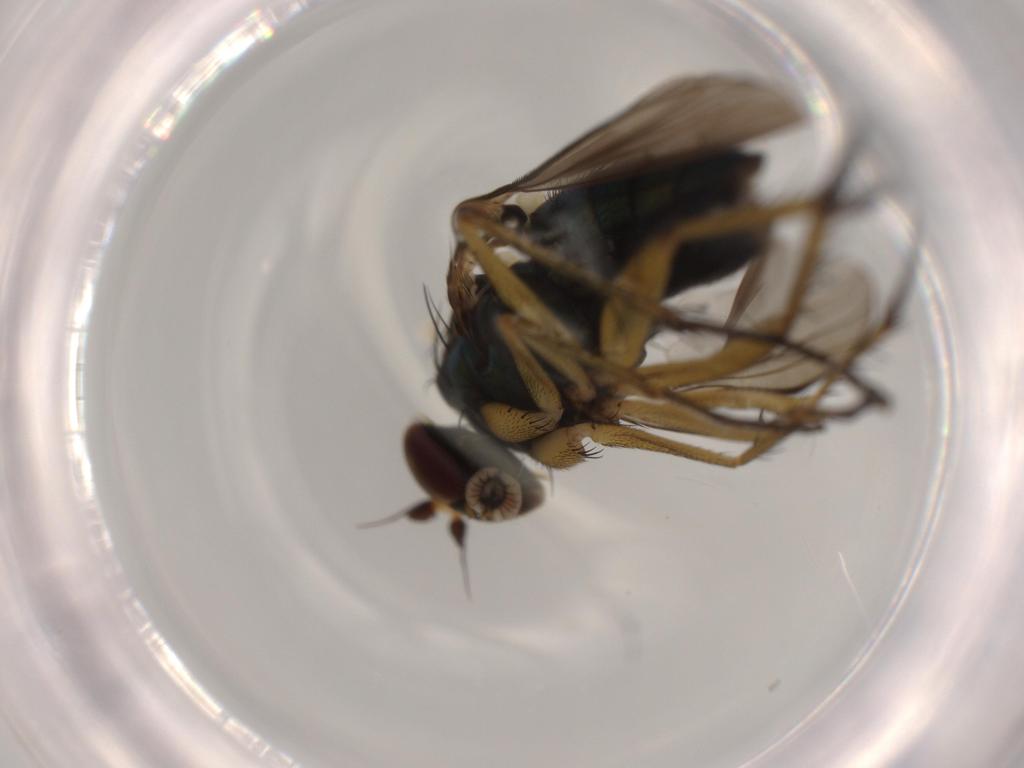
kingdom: Animalia
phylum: Arthropoda
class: Insecta
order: Diptera
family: Dolichopodidae
